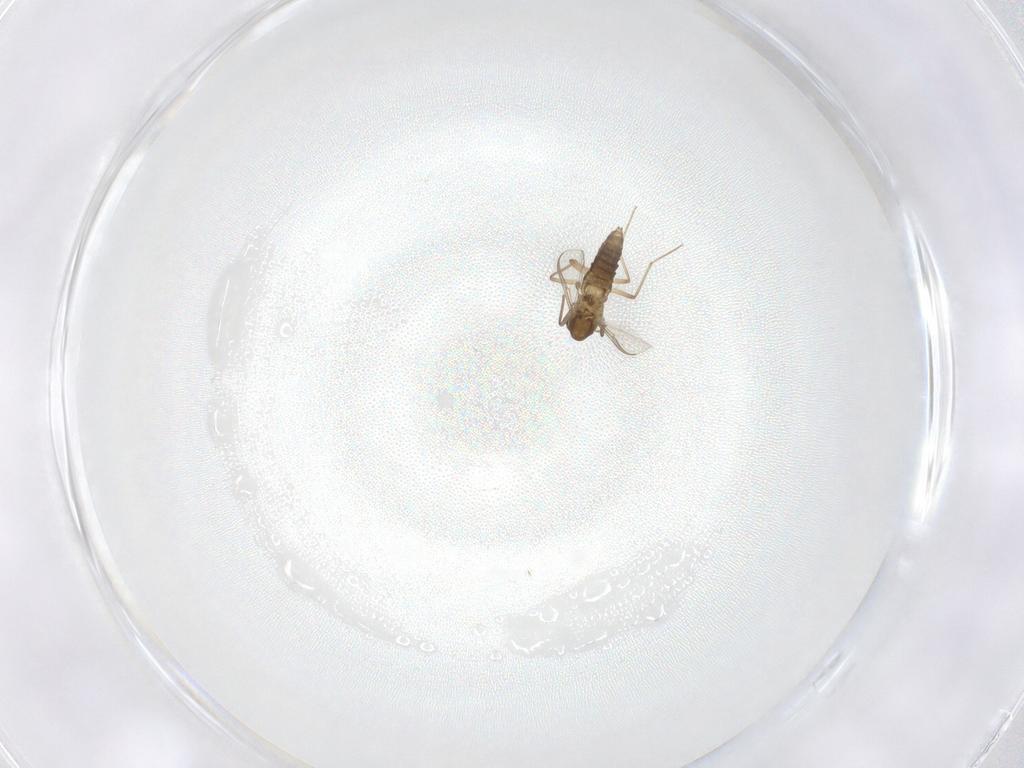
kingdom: Animalia
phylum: Arthropoda
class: Insecta
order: Diptera
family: Chironomidae
